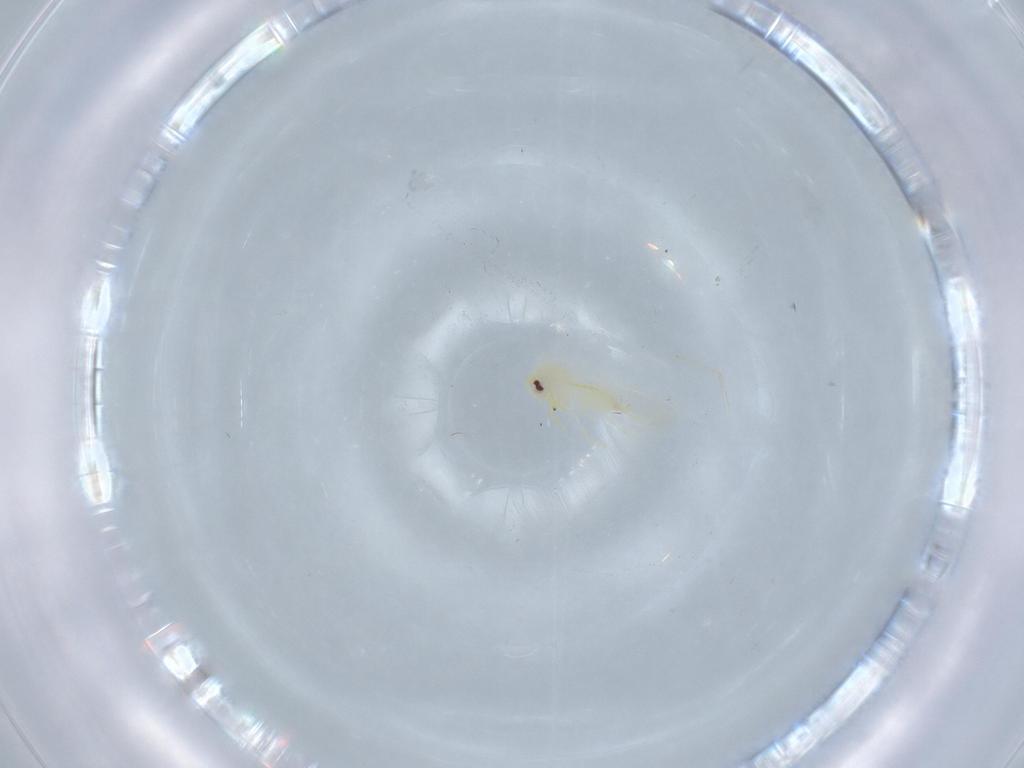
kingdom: Animalia
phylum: Arthropoda
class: Insecta
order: Hemiptera
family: Aleyrodidae
